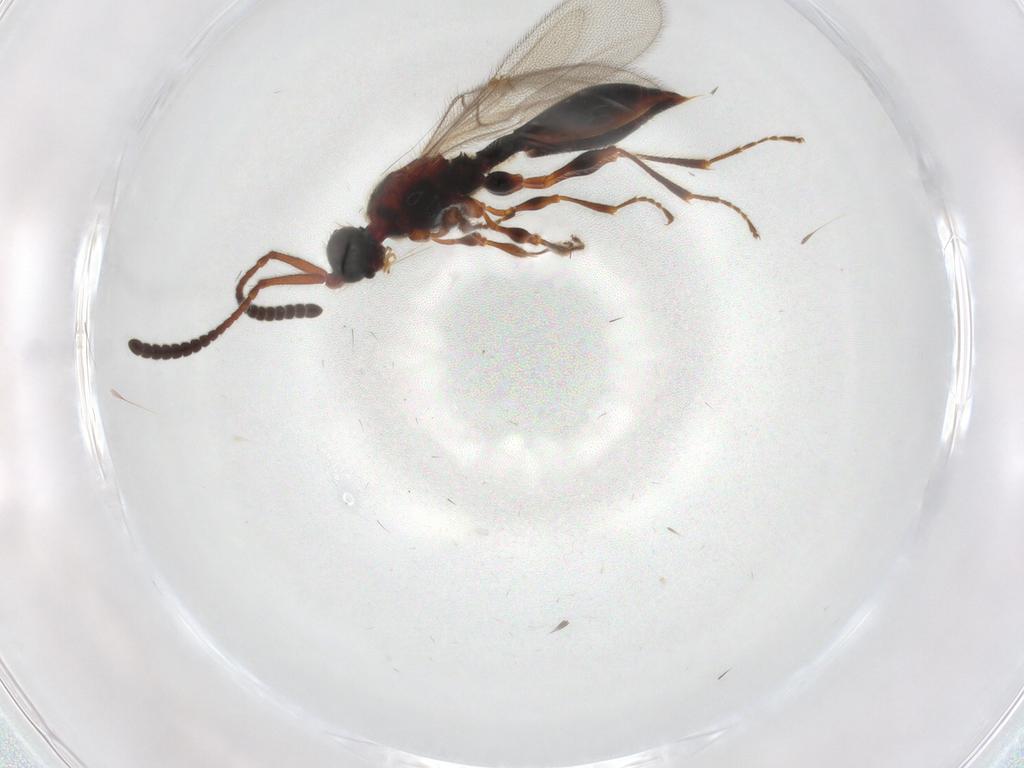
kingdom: Animalia
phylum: Arthropoda
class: Insecta
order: Hymenoptera
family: Diapriidae
